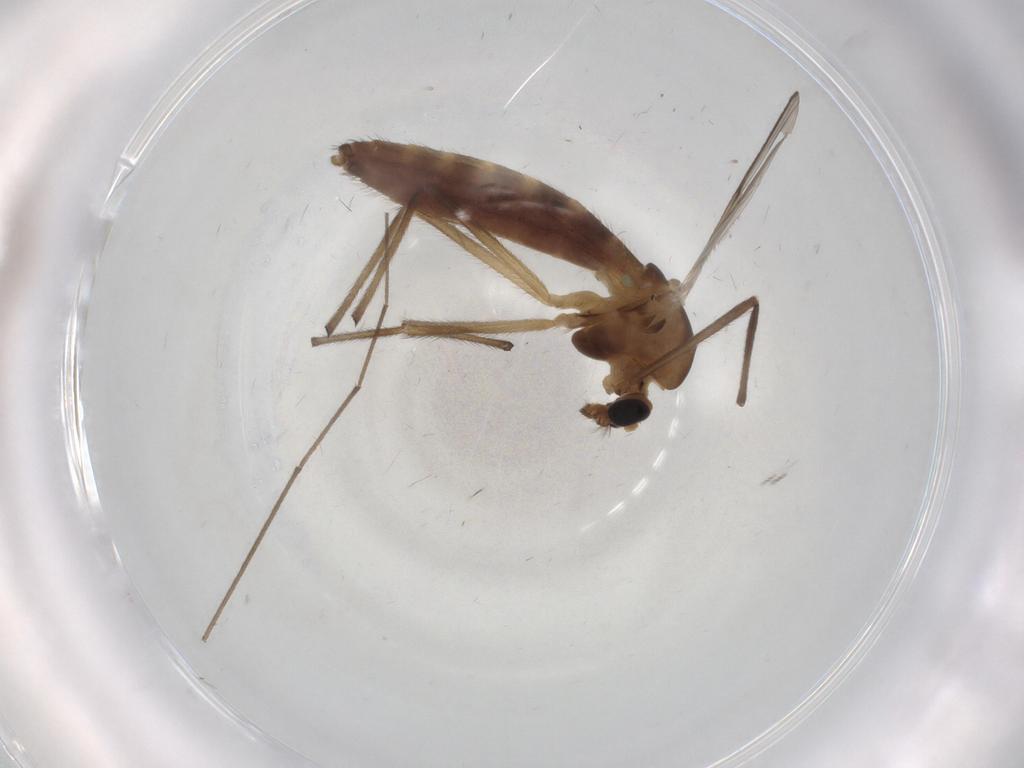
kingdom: Animalia
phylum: Arthropoda
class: Insecta
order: Diptera
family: Chironomidae
